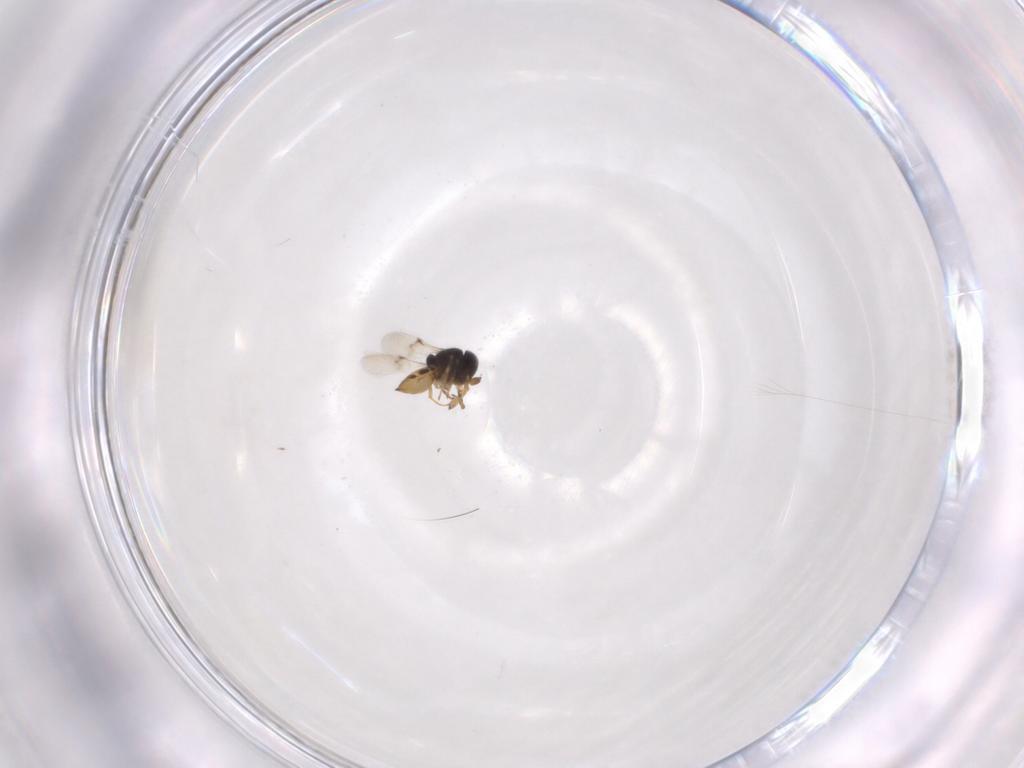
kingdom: Animalia
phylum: Arthropoda
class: Insecta
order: Hymenoptera
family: Scelionidae
